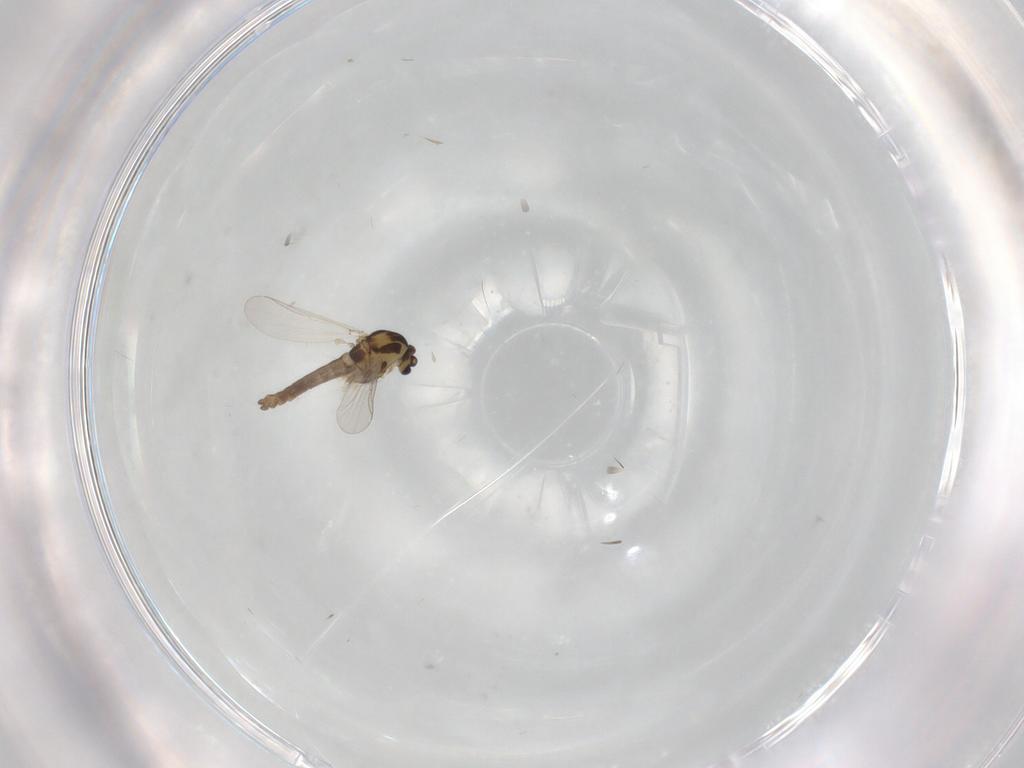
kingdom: Animalia
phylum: Arthropoda
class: Insecta
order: Diptera
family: Chironomidae
